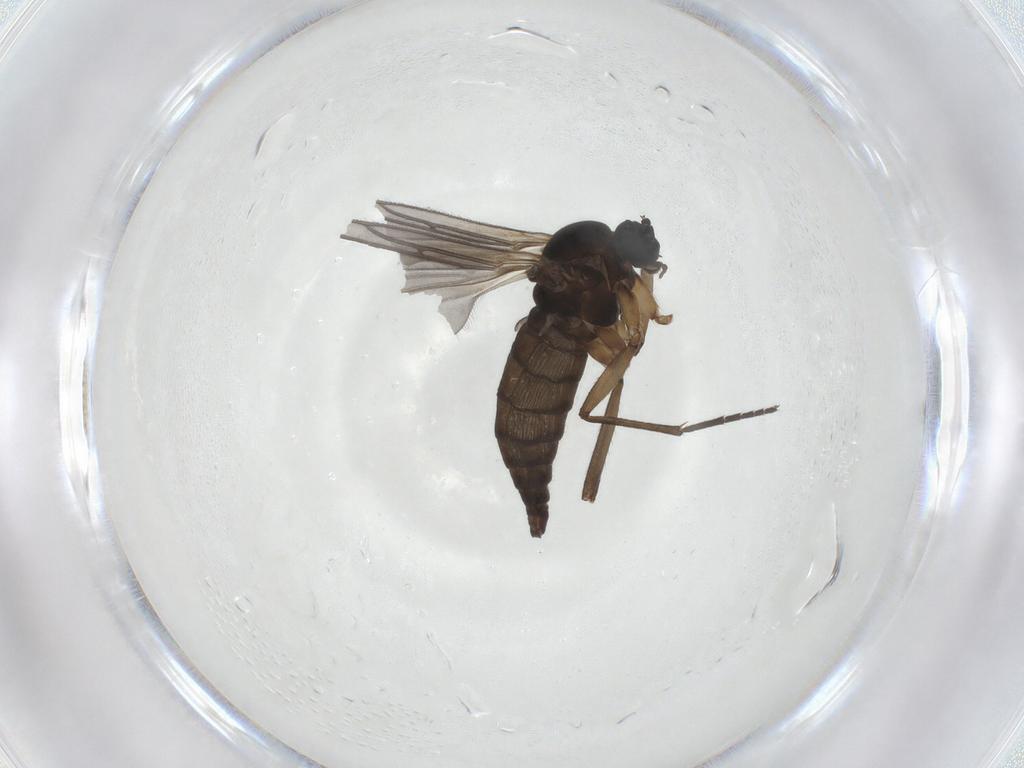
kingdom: Animalia
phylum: Arthropoda
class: Insecta
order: Diptera
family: Sciaridae
